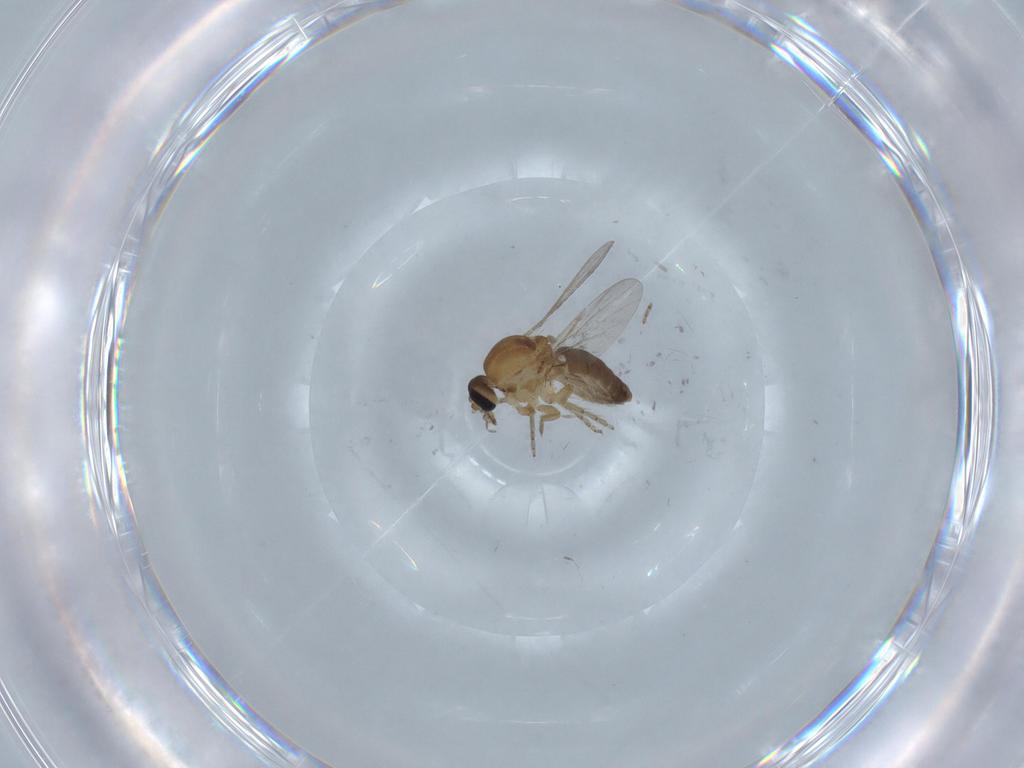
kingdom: Animalia
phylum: Arthropoda
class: Insecta
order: Diptera
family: Ceratopogonidae
